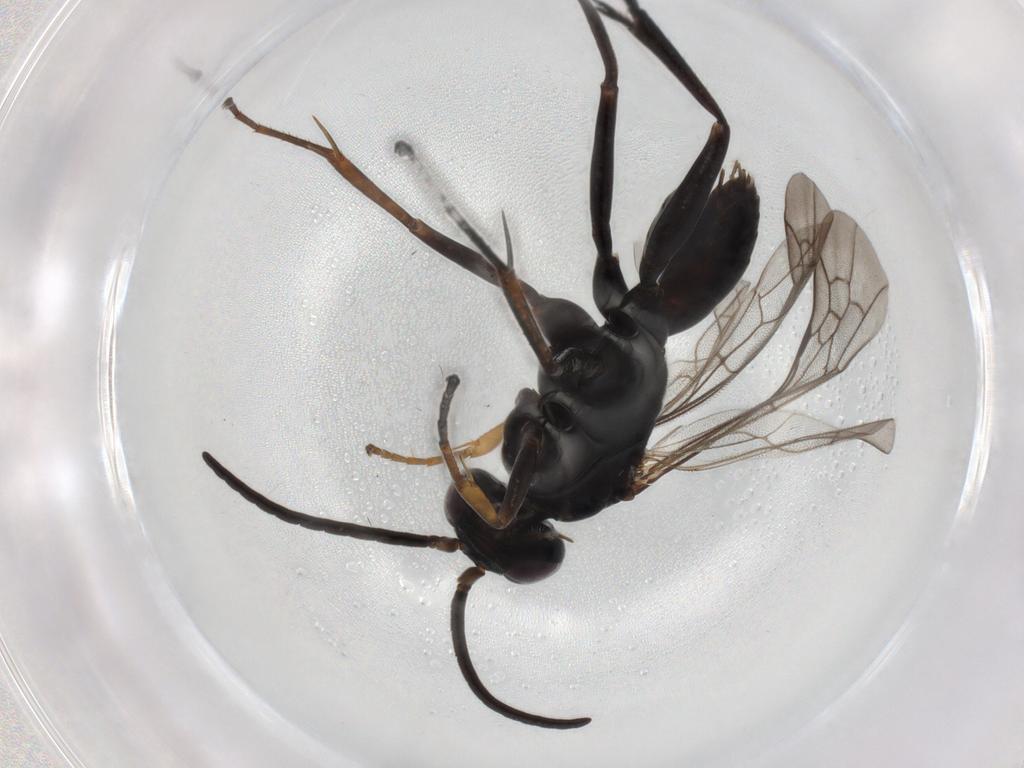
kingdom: Animalia
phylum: Arthropoda
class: Insecta
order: Hymenoptera
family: Pompilidae
